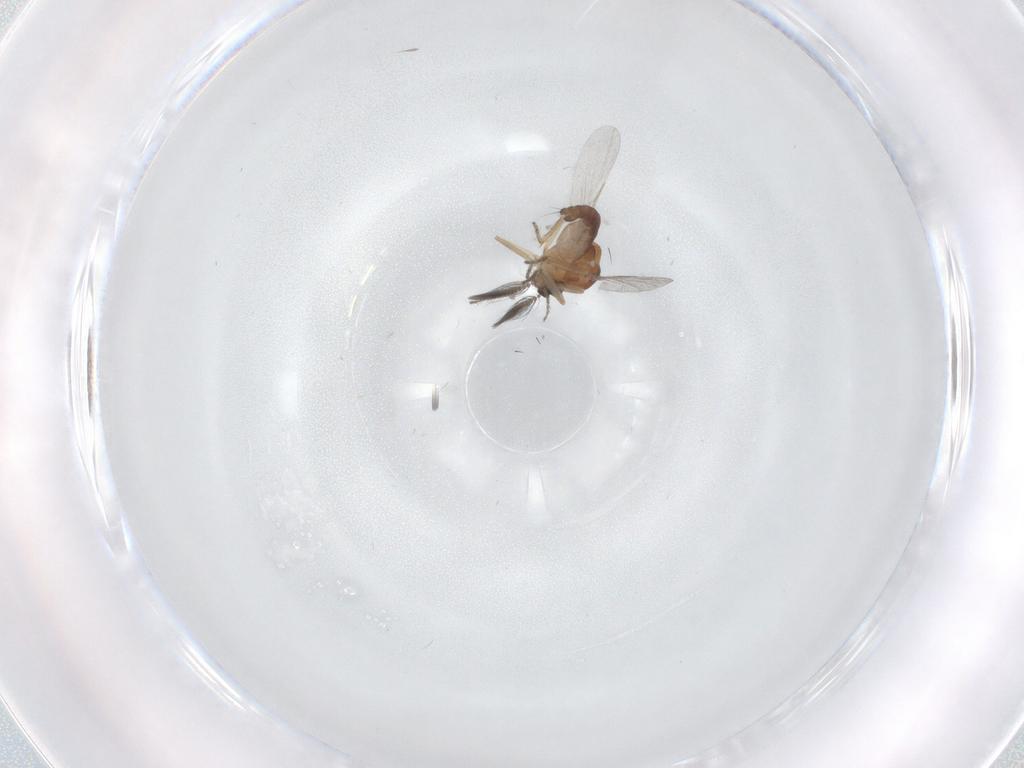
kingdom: Animalia
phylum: Arthropoda
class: Insecta
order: Diptera
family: Ceratopogonidae
